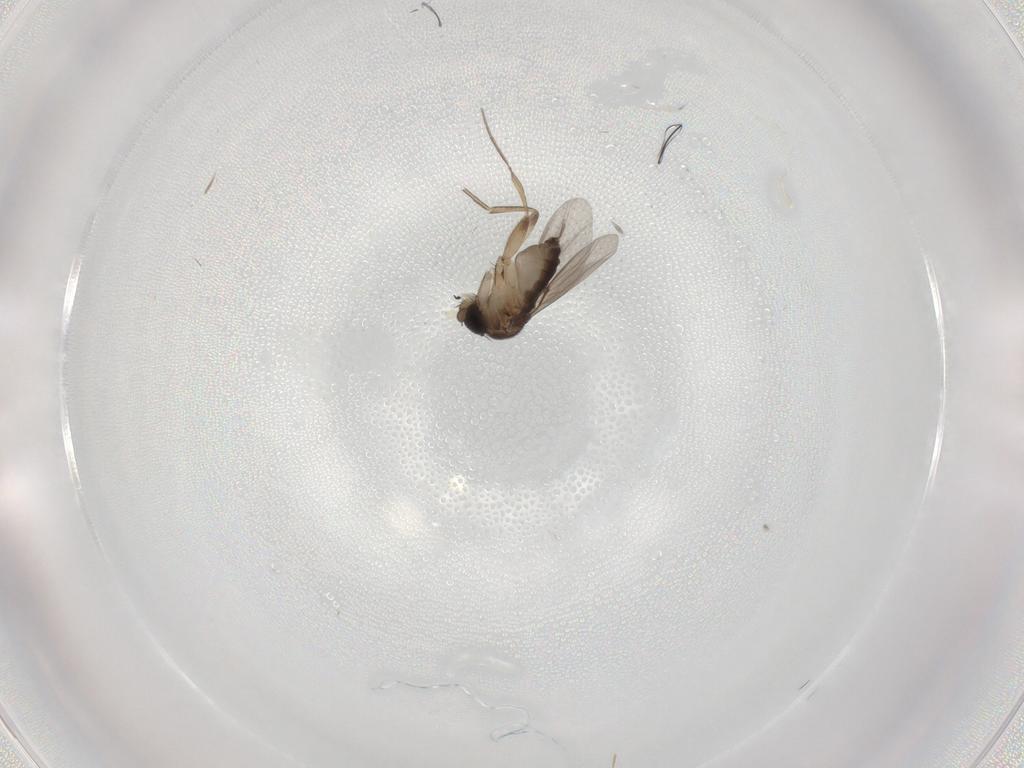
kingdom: Animalia
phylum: Arthropoda
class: Insecta
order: Diptera
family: Phoridae
